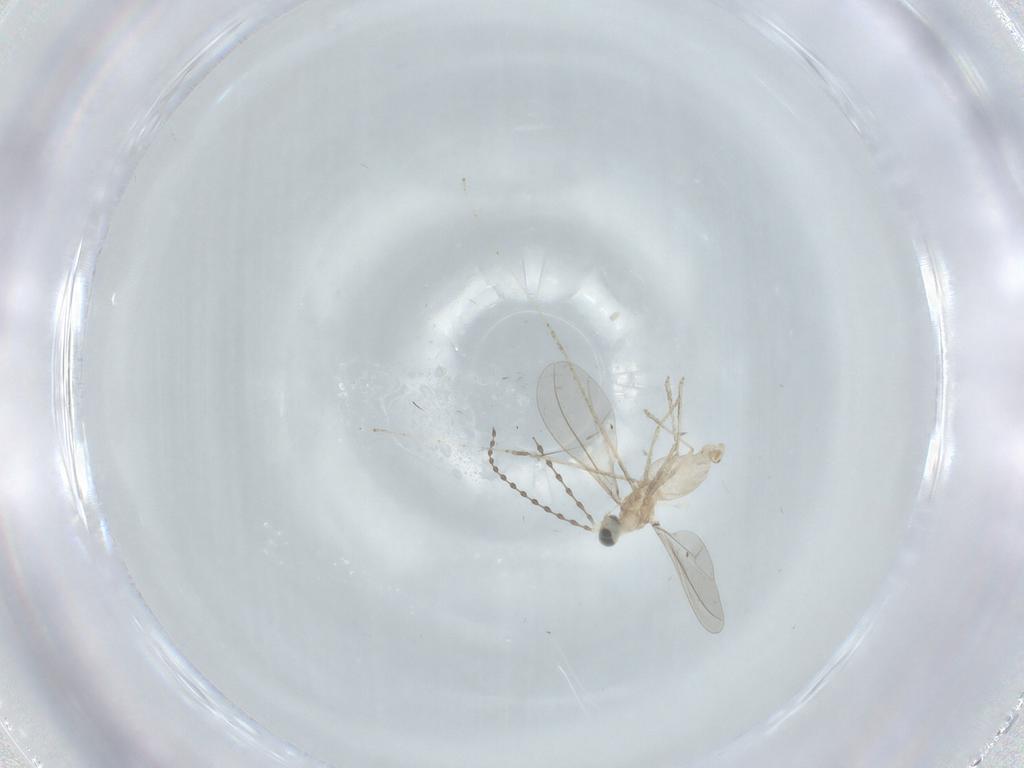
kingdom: Animalia
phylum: Arthropoda
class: Insecta
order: Diptera
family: Cecidomyiidae
